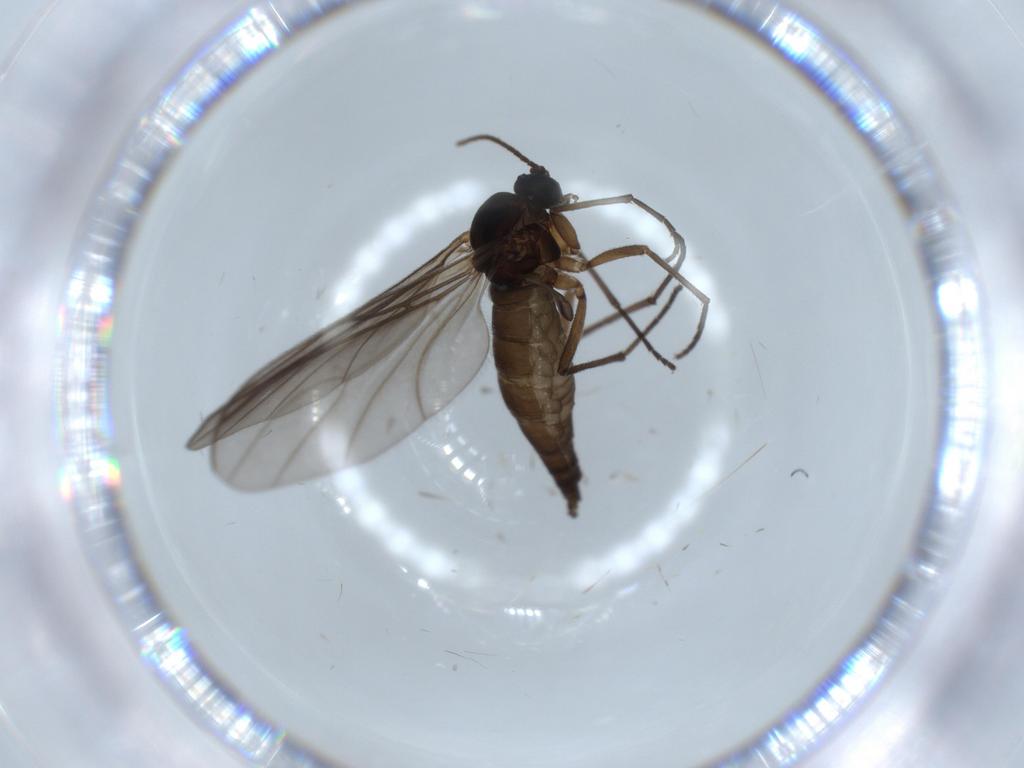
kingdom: Animalia
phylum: Arthropoda
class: Insecta
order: Diptera
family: Sciaridae
